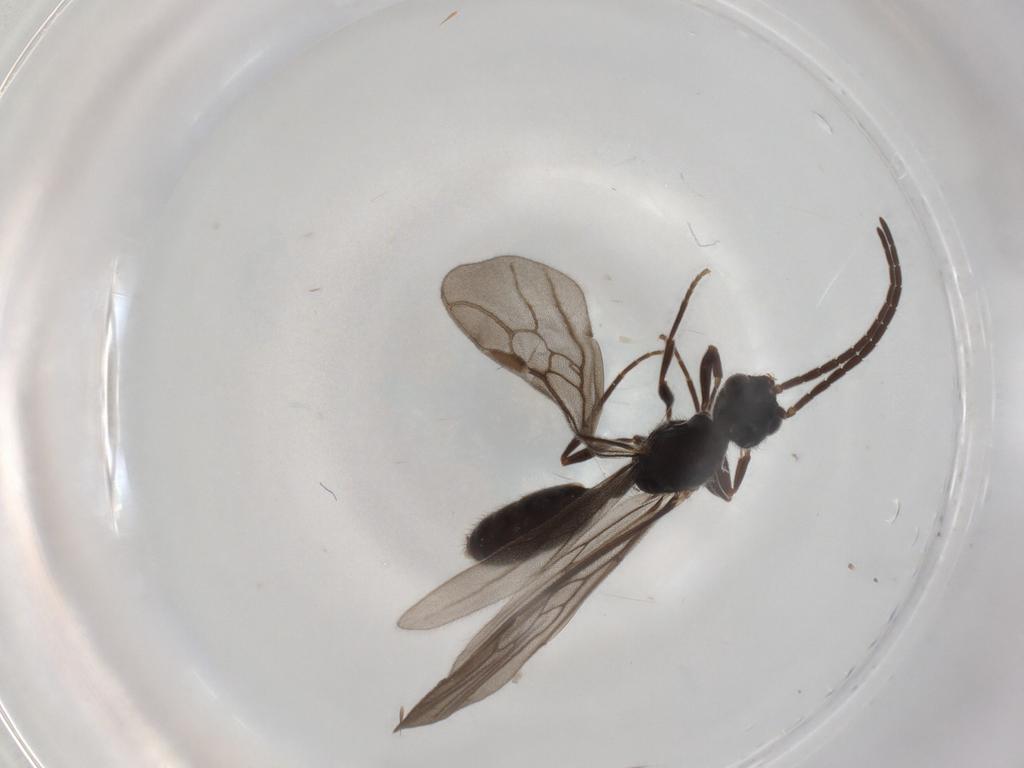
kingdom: Animalia
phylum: Arthropoda
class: Insecta
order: Hymenoptera
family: Formicidae
